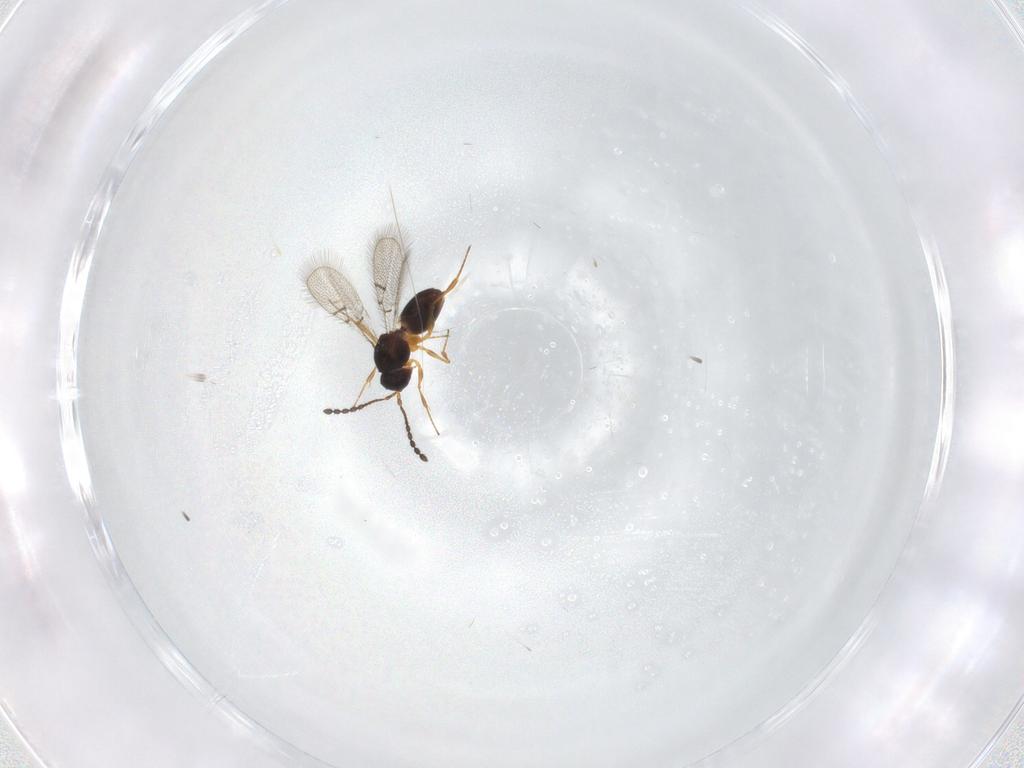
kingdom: Animalia
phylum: Arthropoda
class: Insecta
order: Hymenoptera
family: Figitidae
